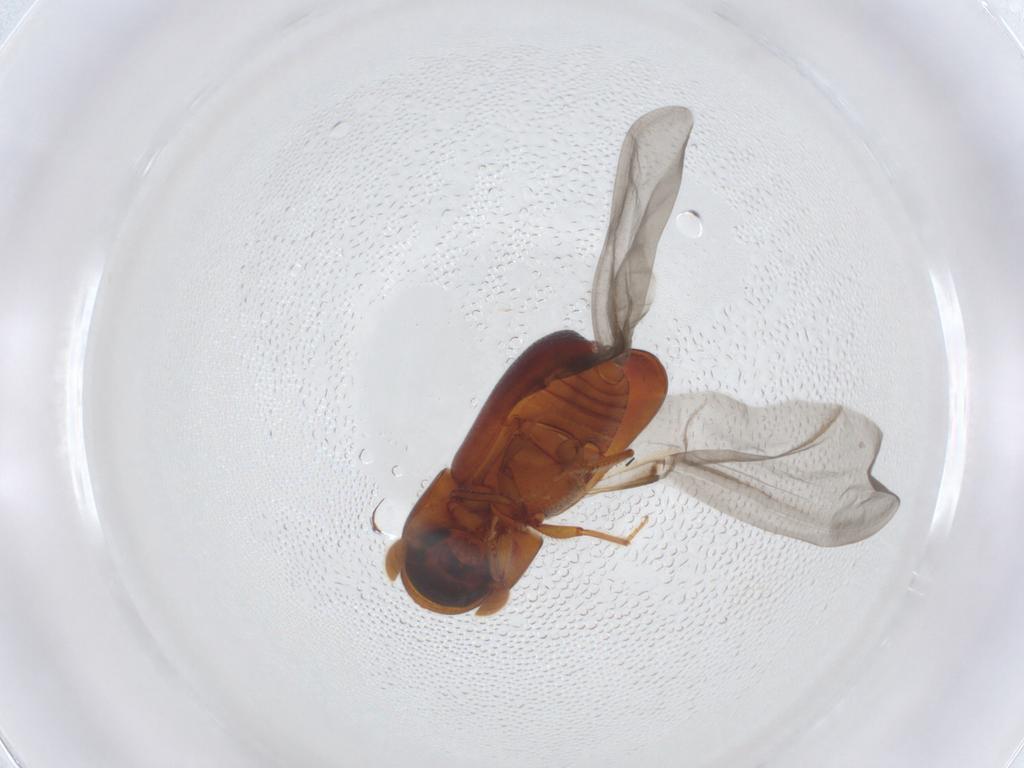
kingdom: Animalia
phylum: Arthropoda
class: Insecta
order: Coleoptera
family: Curculionidae
